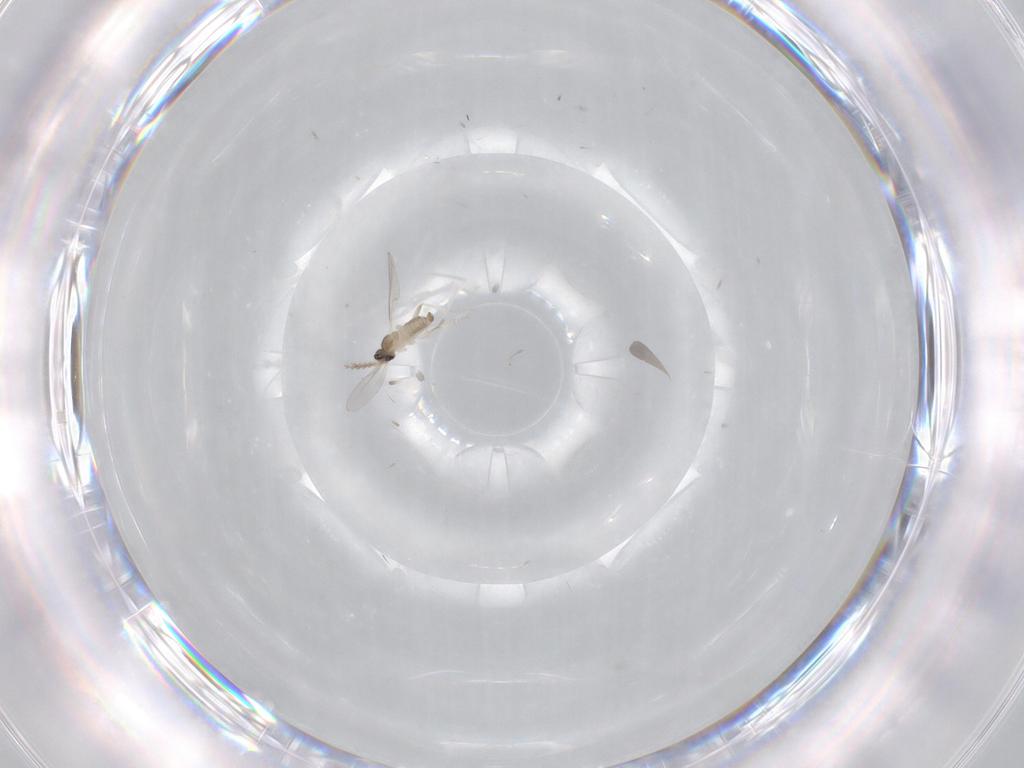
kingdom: Animalia
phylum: Arthropoda
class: Insecta
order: Diptera
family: Cecidomyiidae
